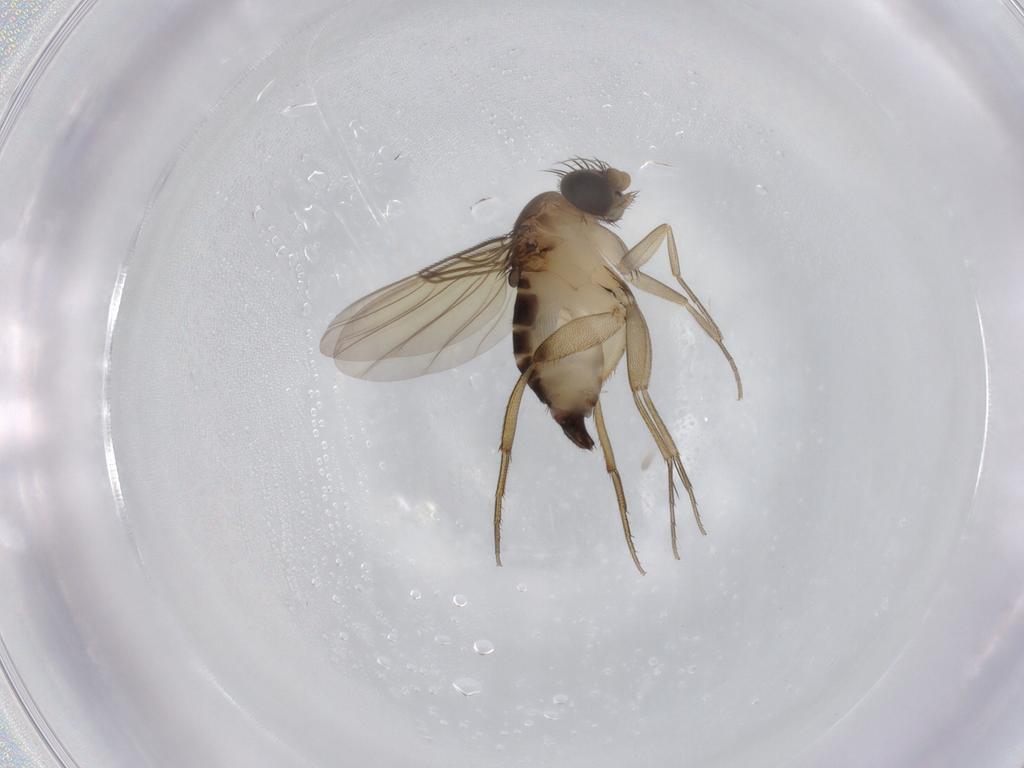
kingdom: Animalia
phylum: Arthropoda
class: Insecta
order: Diptera
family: Phoridae
